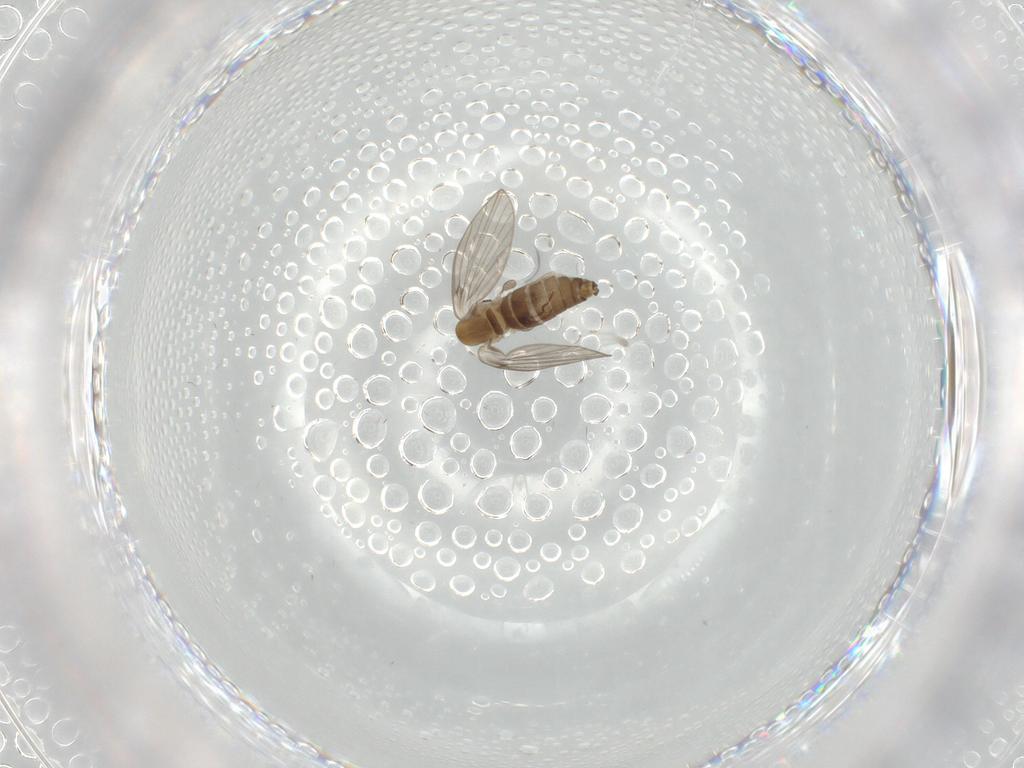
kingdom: Animalia
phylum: Arthropoda
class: Insecta
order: Diptera
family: Psychodidae
